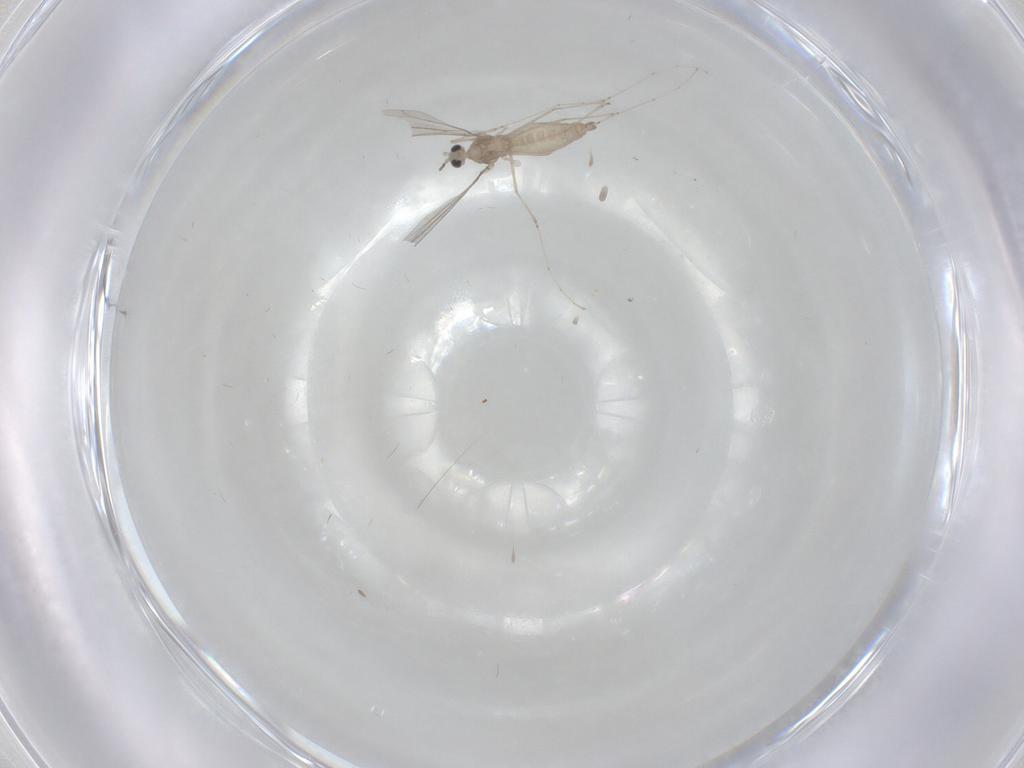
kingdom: Animalia
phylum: Arthropoda
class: Insecta
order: Diptera
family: Cecidomyiidae
